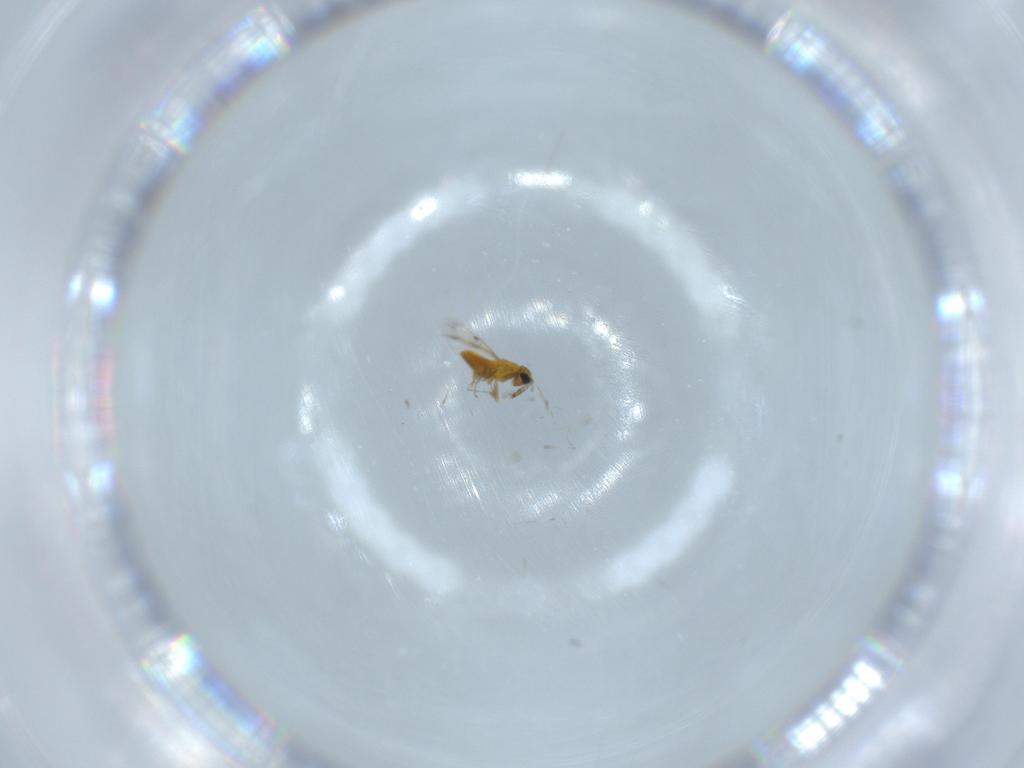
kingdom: Animalia
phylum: Arthropoda
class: Insecta
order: Hymenoptera
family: Trichogrammatidae
